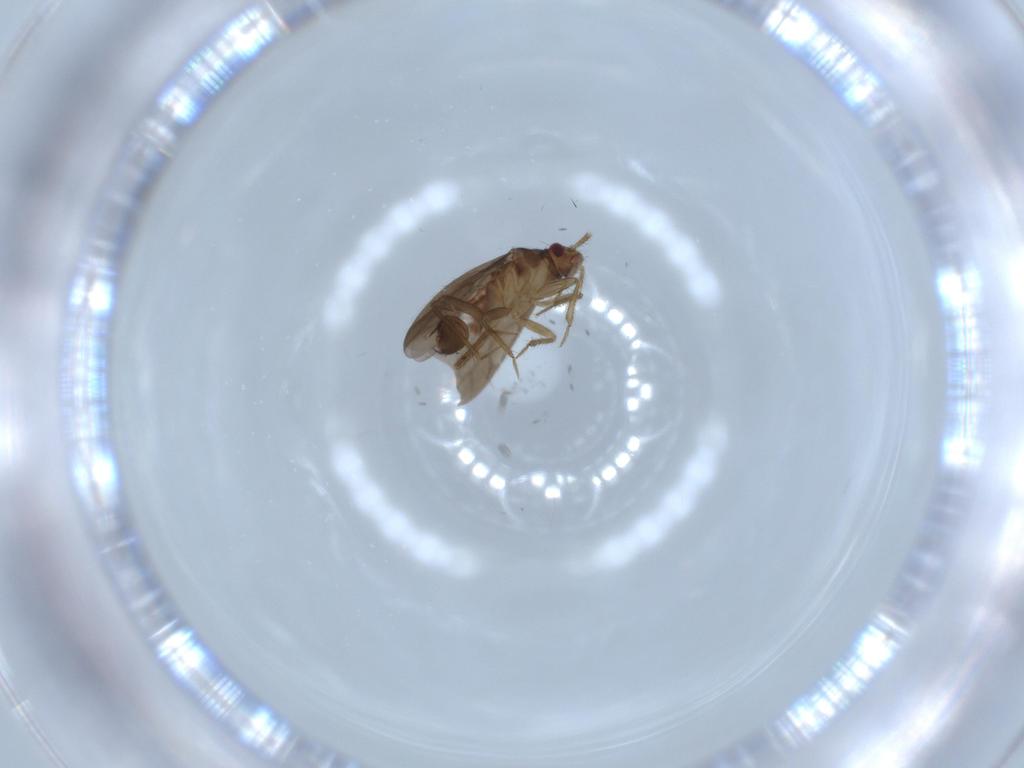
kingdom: Animalia
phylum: Arthropoda
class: Insecta
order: Hemiptera
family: Ceratocombidae
